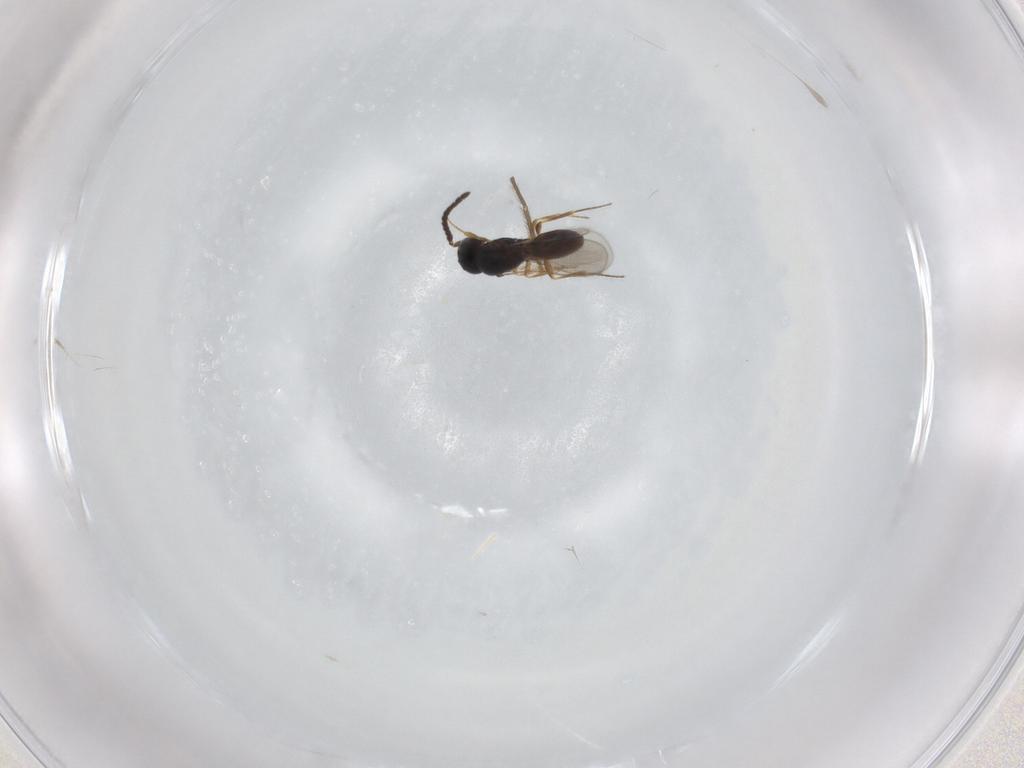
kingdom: Animalia
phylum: Arthropoda
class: Insecta
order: Hymenoptera
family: Scelionidae
